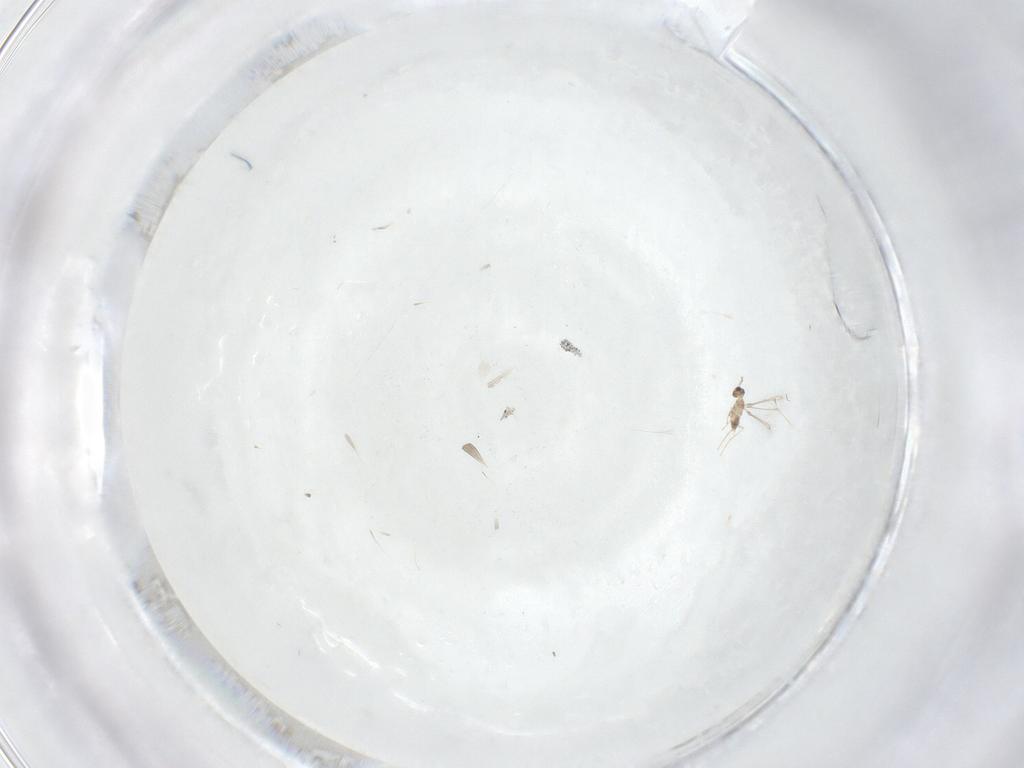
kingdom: Animalia
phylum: Arthropoda
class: Insecta
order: Hymenoptera
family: Mymaridae
